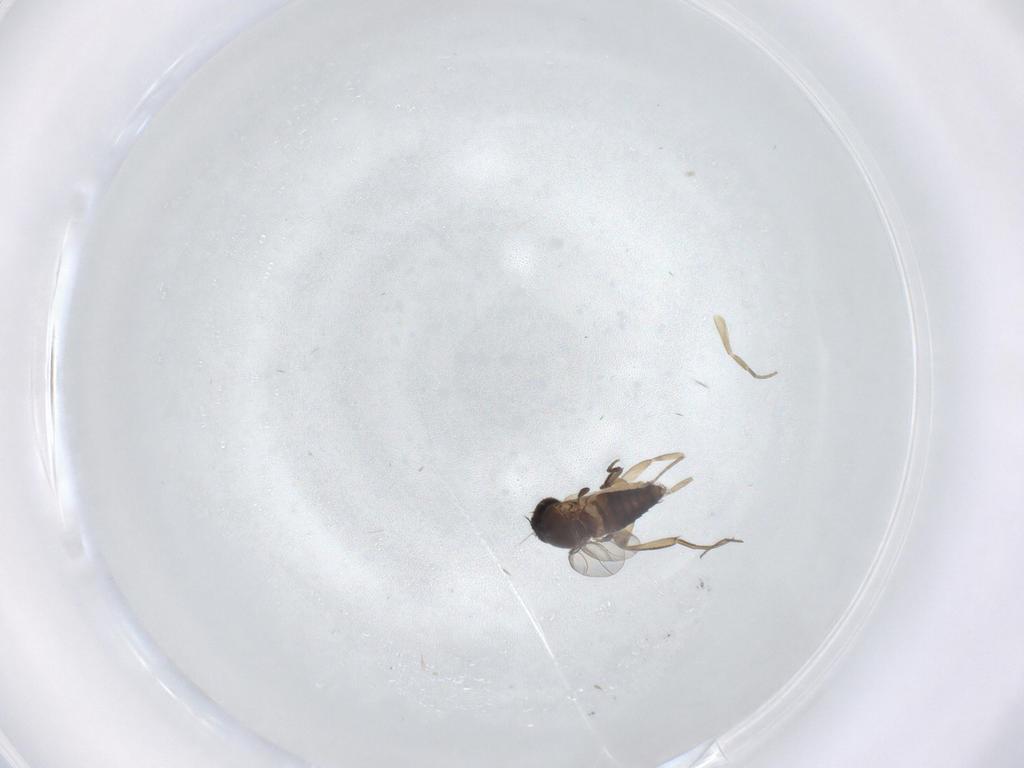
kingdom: Animalia
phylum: Arthropoda
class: Insecta
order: Diptera
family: Phoridae
